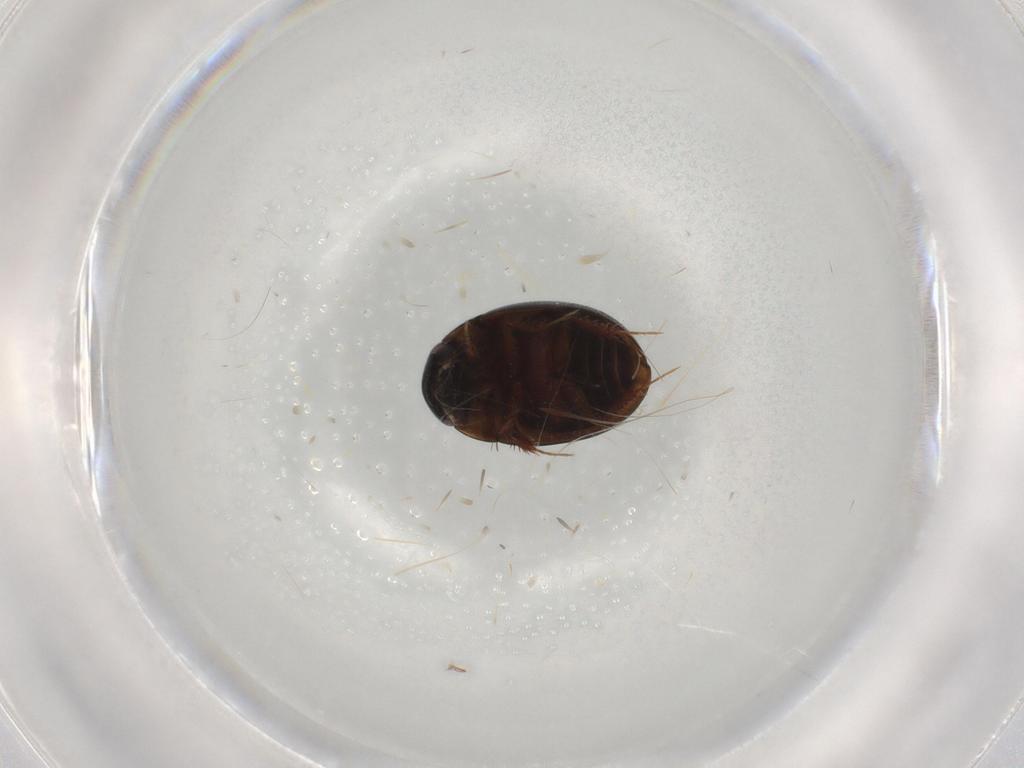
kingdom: Animalia
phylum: Arthropoda
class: Insecta
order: Coleoptera
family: Hydrophilidae
